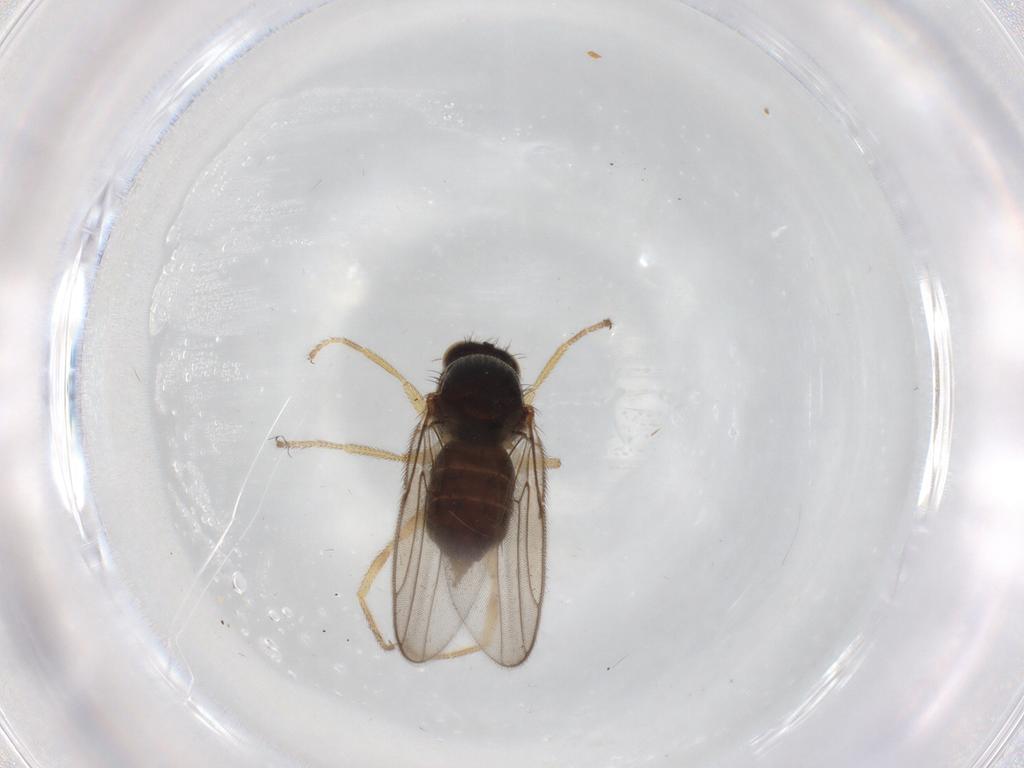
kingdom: Animalia
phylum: Arthropoda
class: Insecta
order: Diptera
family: Chloropidae
